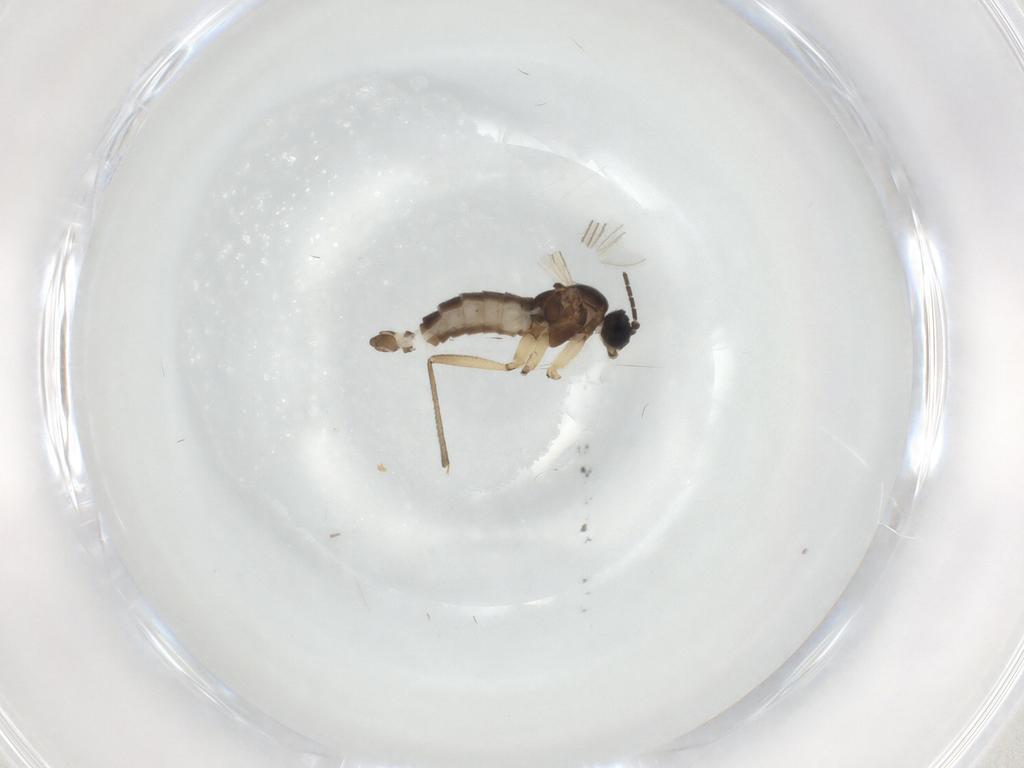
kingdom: Animalia
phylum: Arthropoda
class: Insecta
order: Diptera
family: Sciaridae
